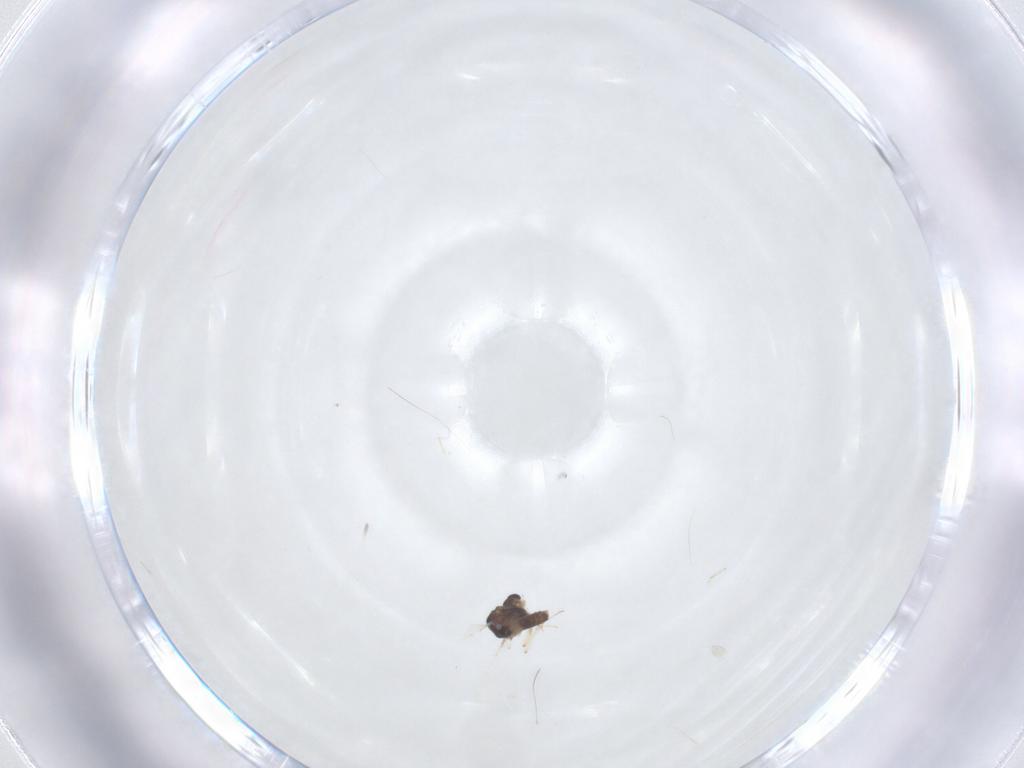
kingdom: Animalia
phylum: Arthropoda
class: Insecta
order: Diptera
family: Chironomidae
